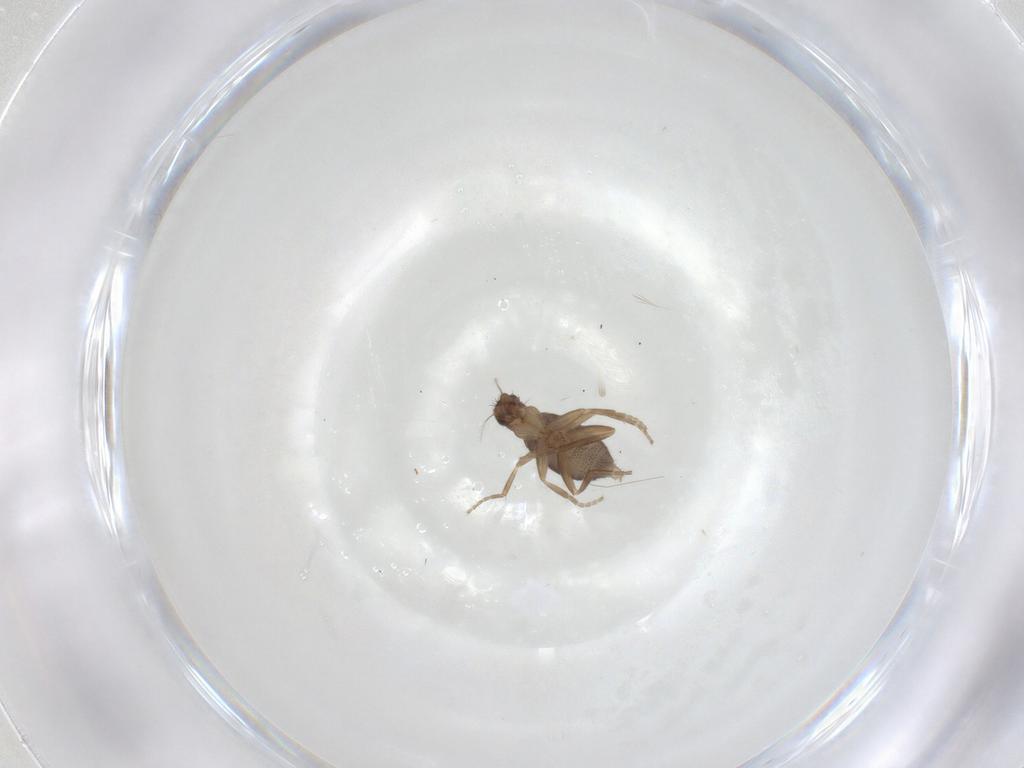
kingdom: Animalia
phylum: Arthropoda
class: Insecta
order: Diptera
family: Phoridae
